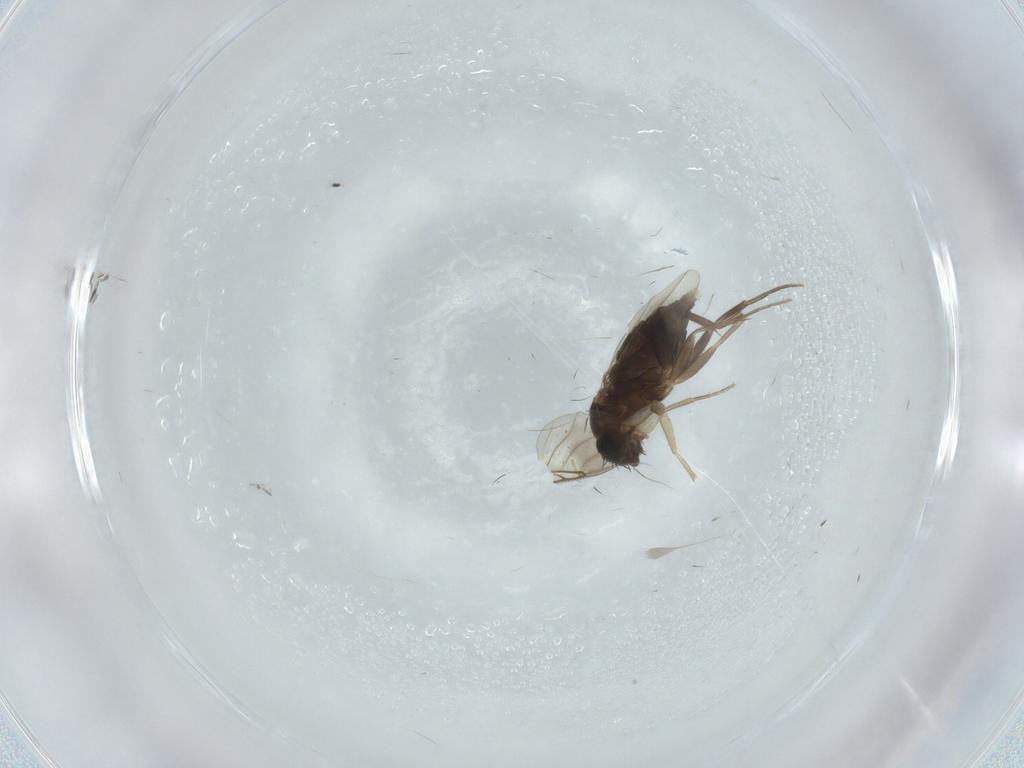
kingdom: Animalia
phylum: Arthropoda
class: Insecta
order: Diptera
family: Phoridae
